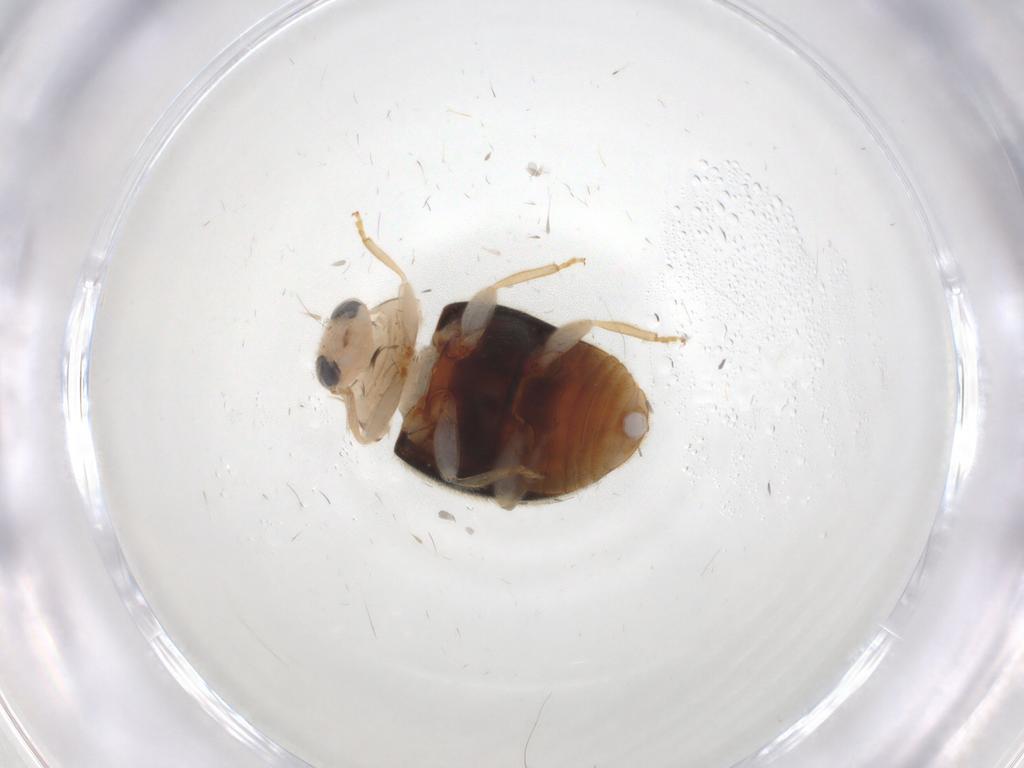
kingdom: Animalia
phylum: Arthropoda
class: Insecta
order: Coleoptera
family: Coccinellidae
